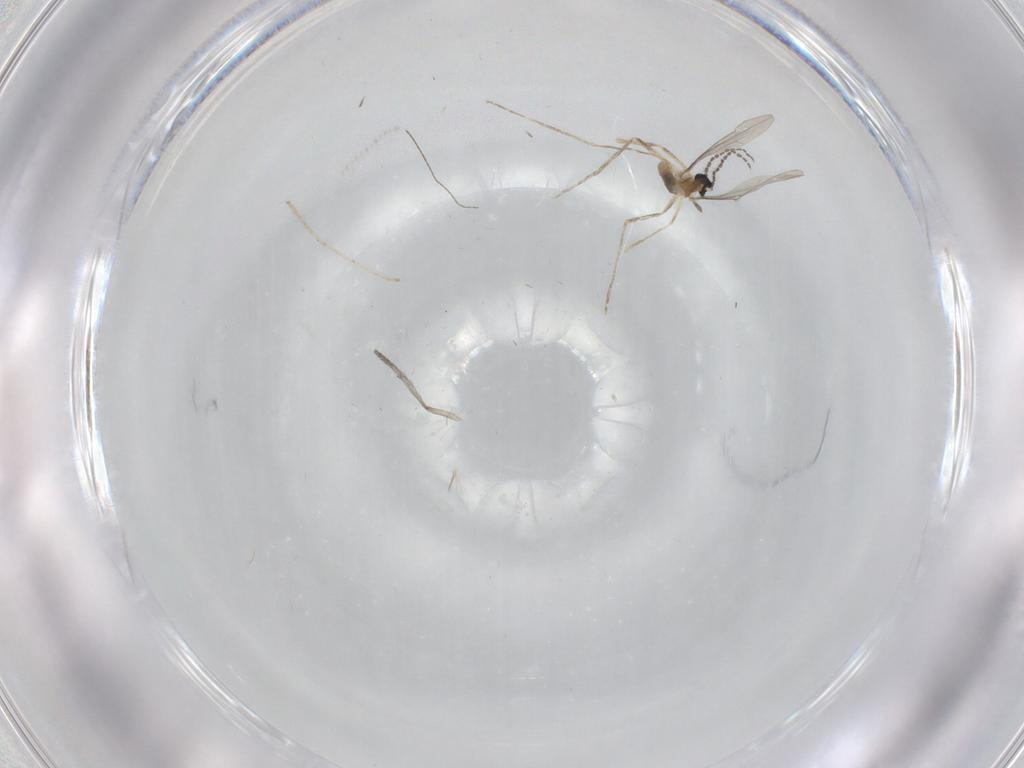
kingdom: Animalia
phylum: Arthropoda
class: Insecta
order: Diptera
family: Cecidomyiidae
